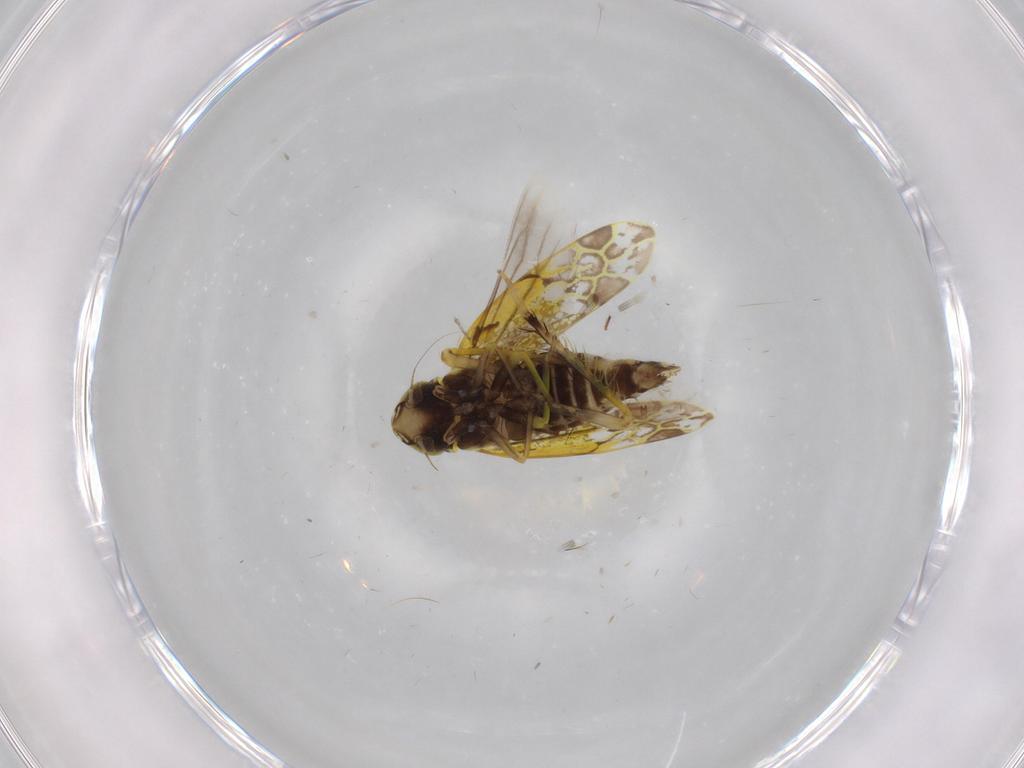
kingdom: Animalia
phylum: Arthropoda
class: Insecta
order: Hemiptera
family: Cicadellidae
